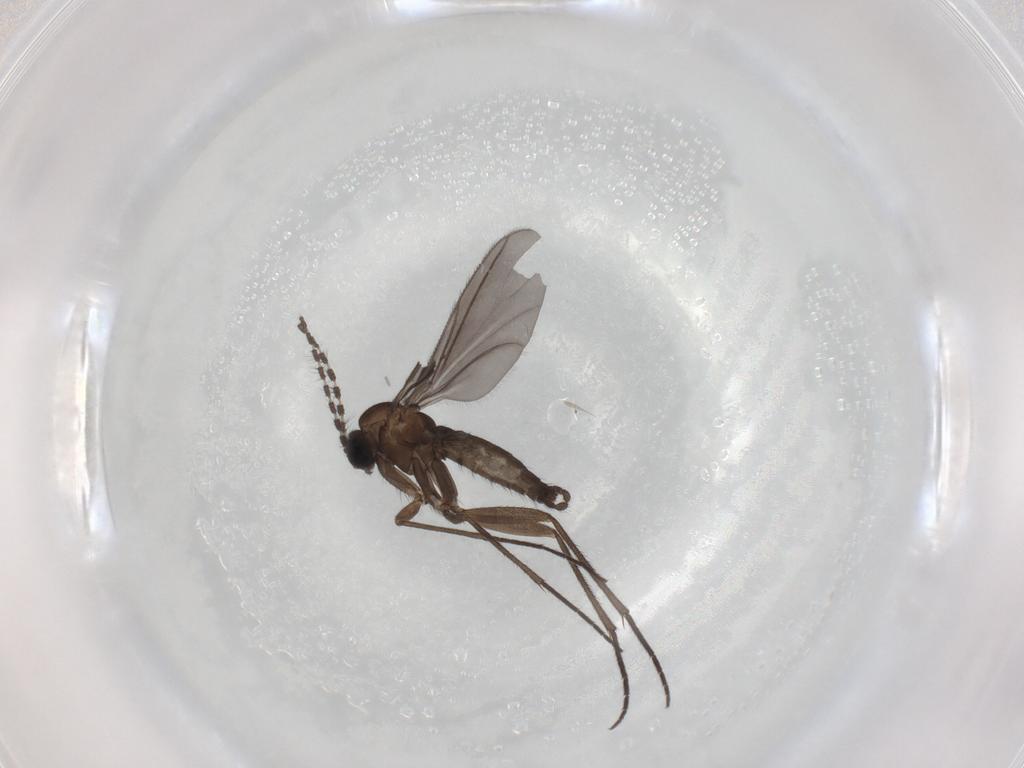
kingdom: Animalia
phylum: Arthropoda
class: Insecta
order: Diptera
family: Sciaridae
